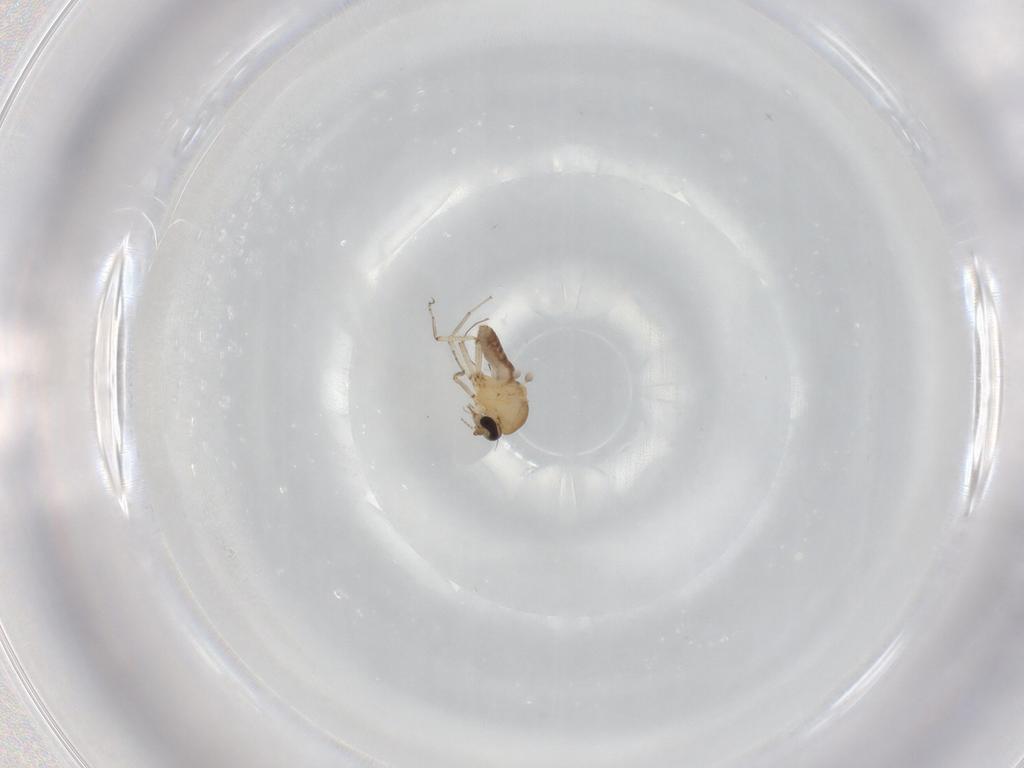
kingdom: Animalia
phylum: Arthropoda
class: Insecta
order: Diptera
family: Ceratopogonidae
